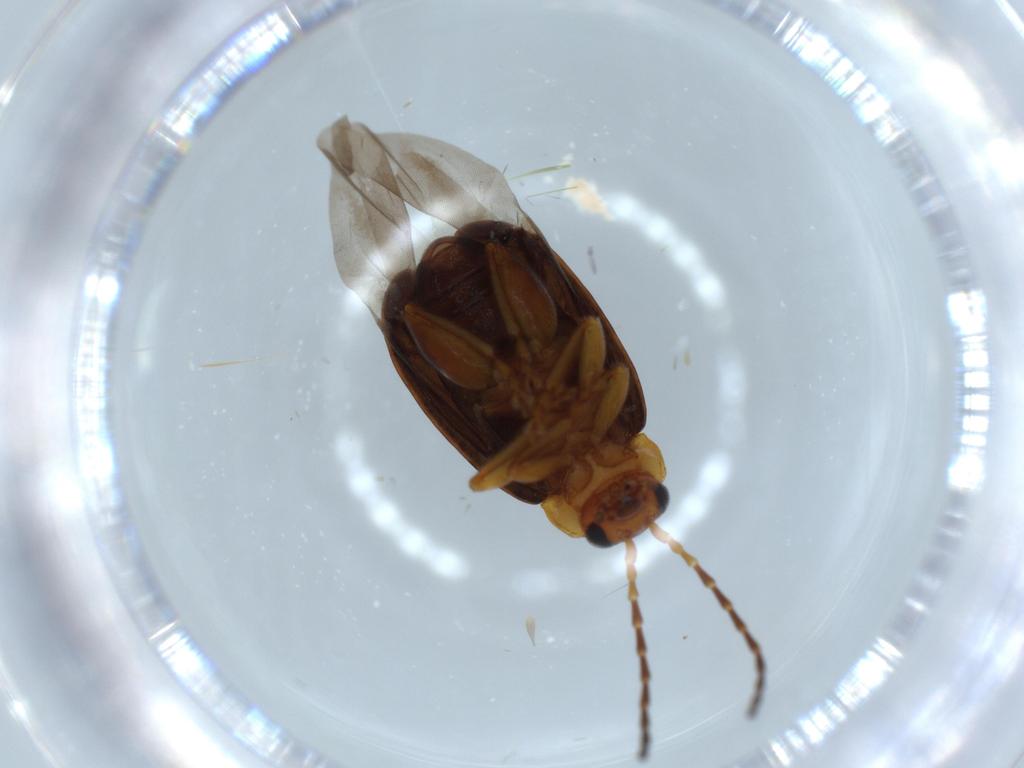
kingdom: Animalia
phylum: Arthropoda
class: Insecta
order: Coleoptera
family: Chrysomelidae
